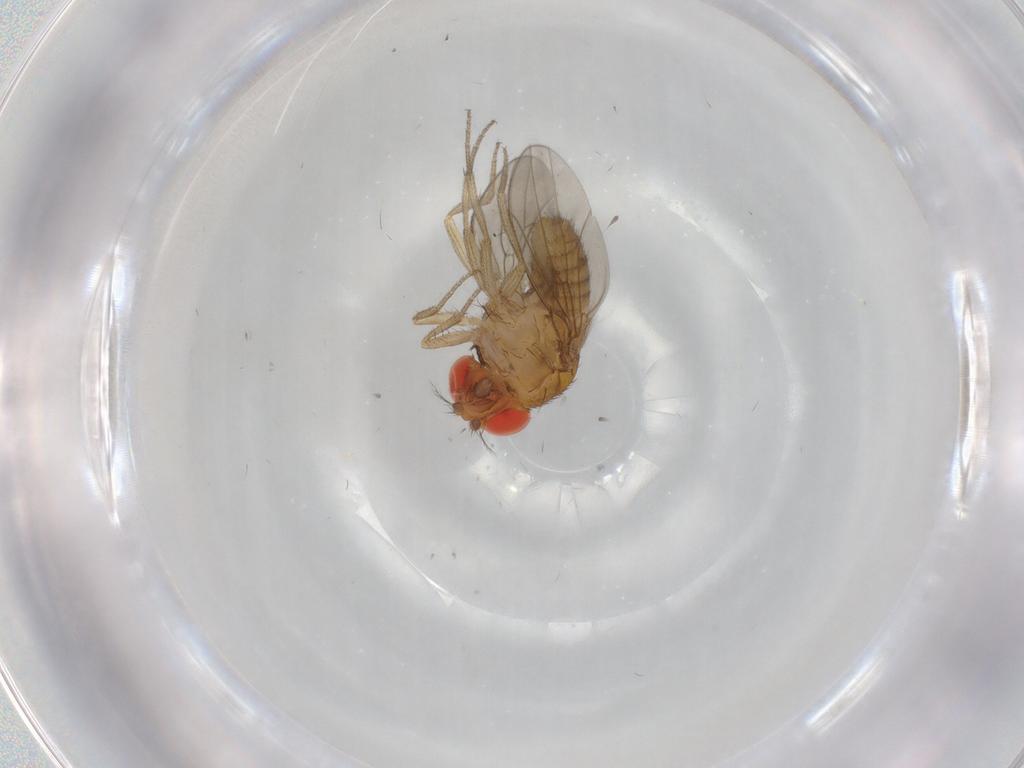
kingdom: Animalia
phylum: Arthropoda
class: Insecta
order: Diptera
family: Drosophilidae
